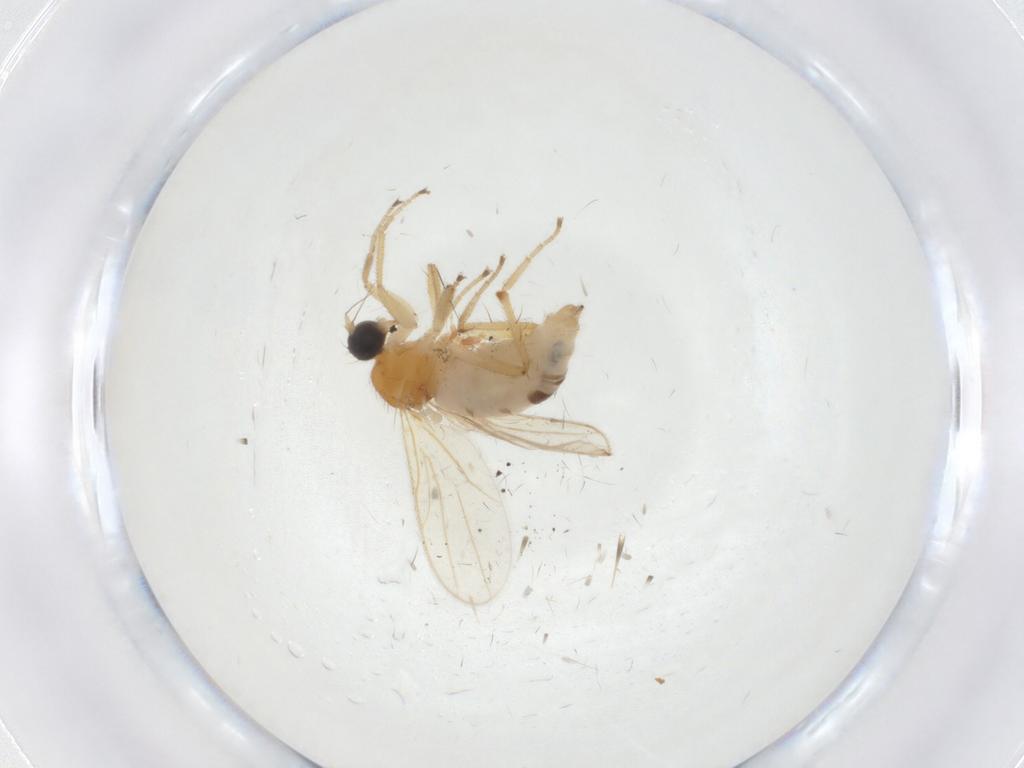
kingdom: Animalia
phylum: Arthropoda
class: Insecta
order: Diptera
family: Hybotidae
